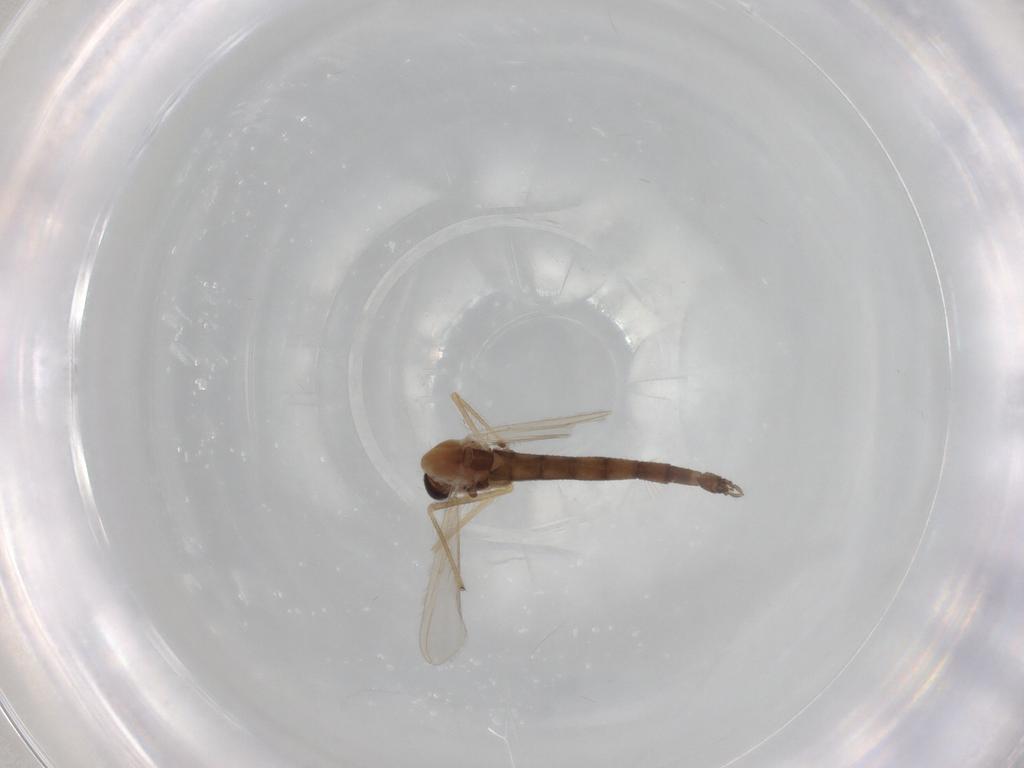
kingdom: Animalia
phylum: Arthropoda
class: Insecta
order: Diptera
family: Chironomidae
